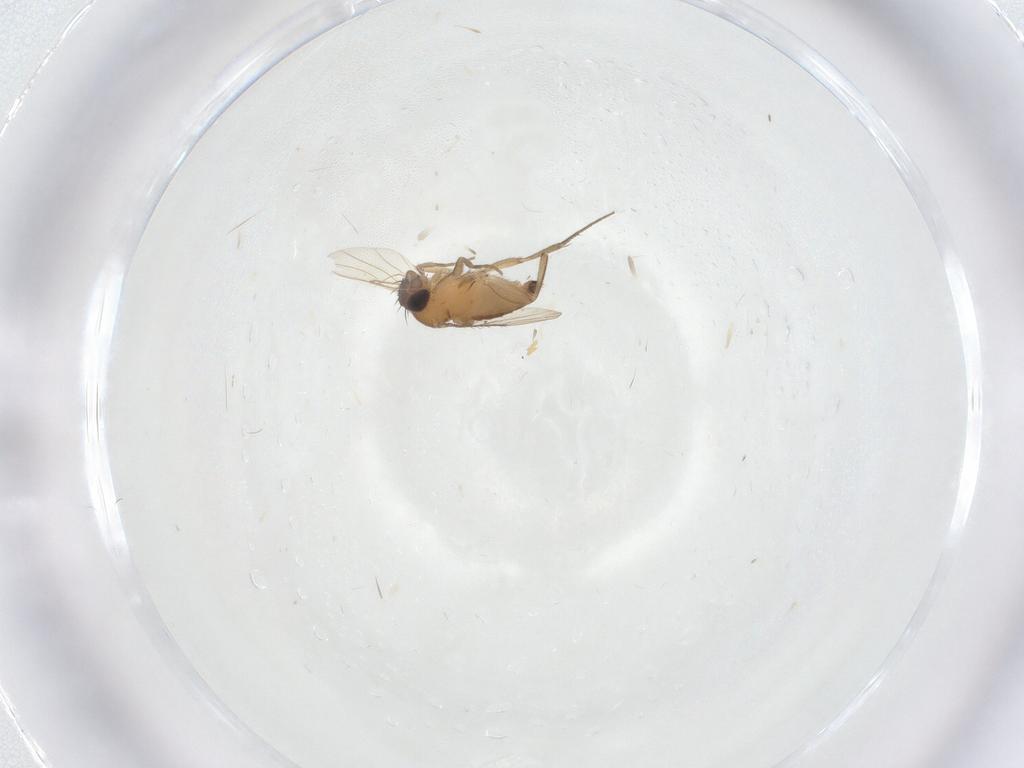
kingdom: Animalia
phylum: Arthropoda
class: Insecta
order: Diptera
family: Phoridae
